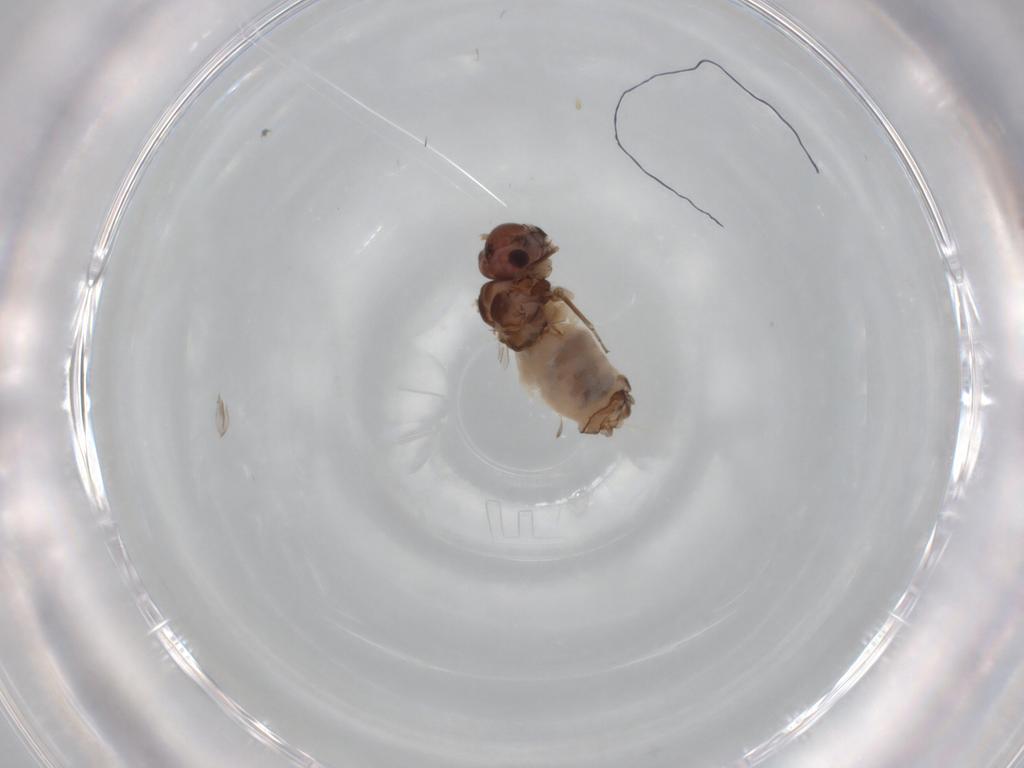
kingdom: Animalia
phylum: Arthropoda
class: Insecta
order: Psocodea
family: Peripsocidae
